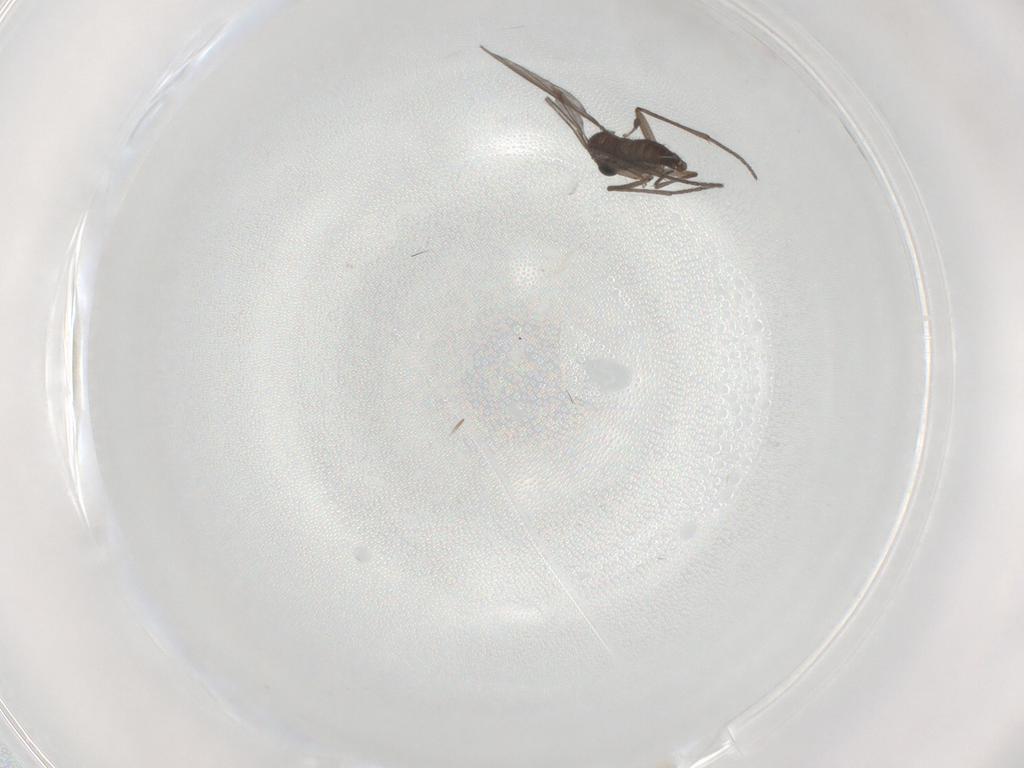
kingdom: Animalia
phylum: Arthropoda
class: Insecta
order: Diptera
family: Sciaridae
